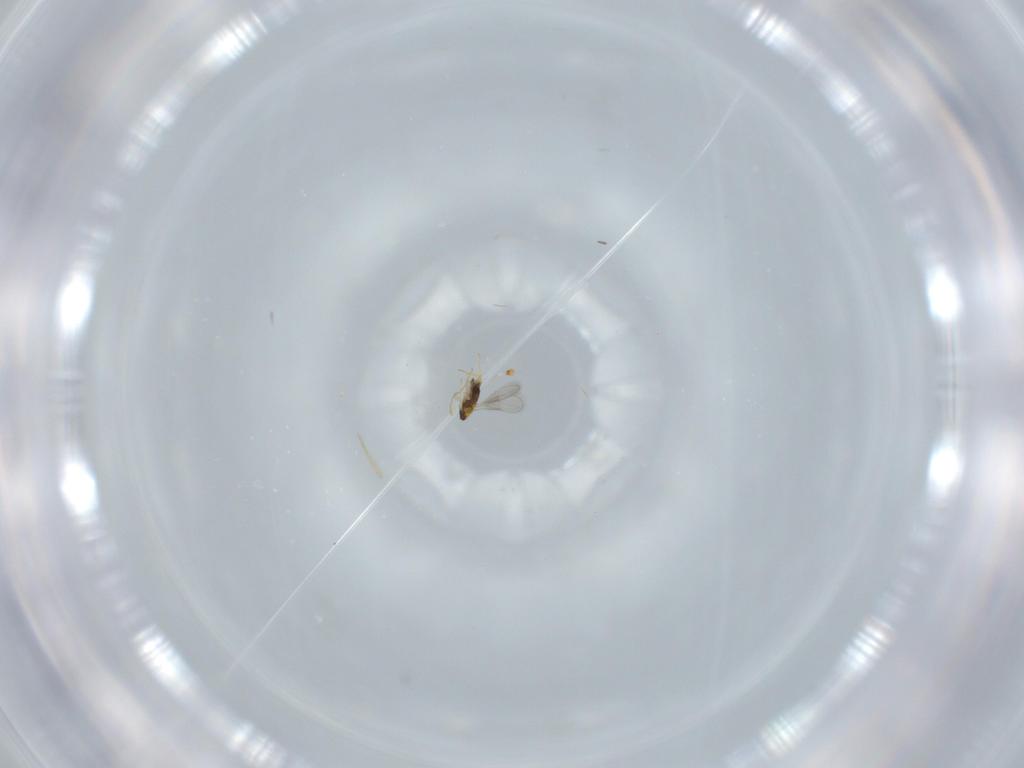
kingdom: Animalia
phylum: Arthropoda
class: Insecta
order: Hymenoptera
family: Aphelinidae
